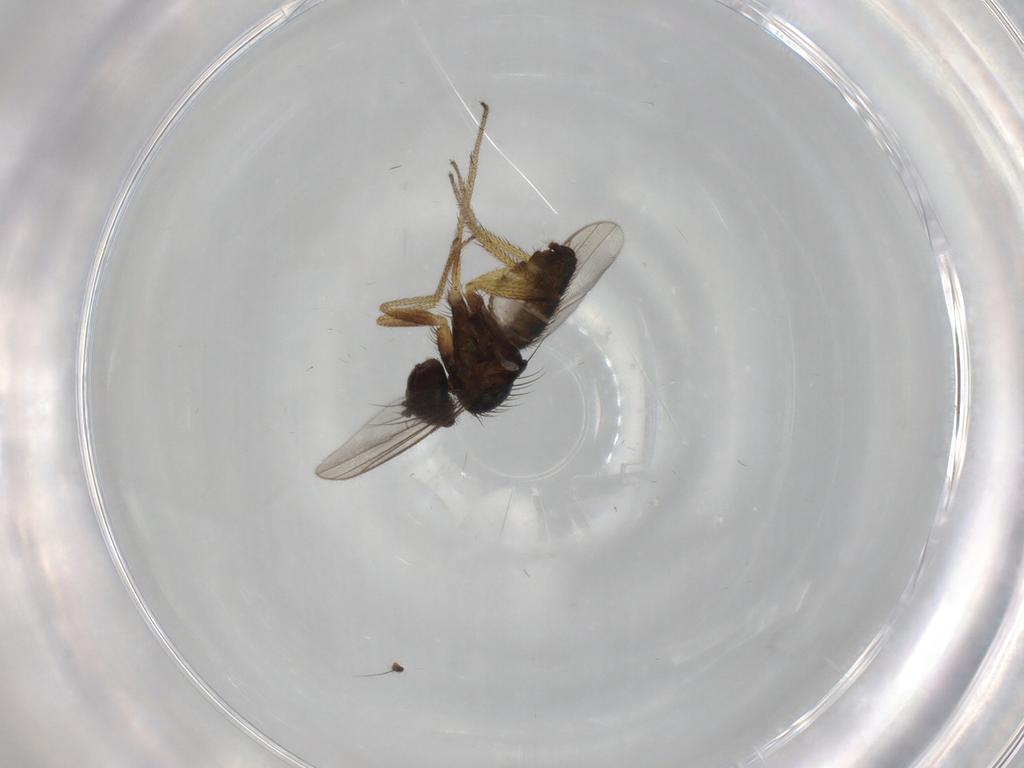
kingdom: Animalia
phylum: Arthropoda
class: Insecta
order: Diptera
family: Dolichopodidae
